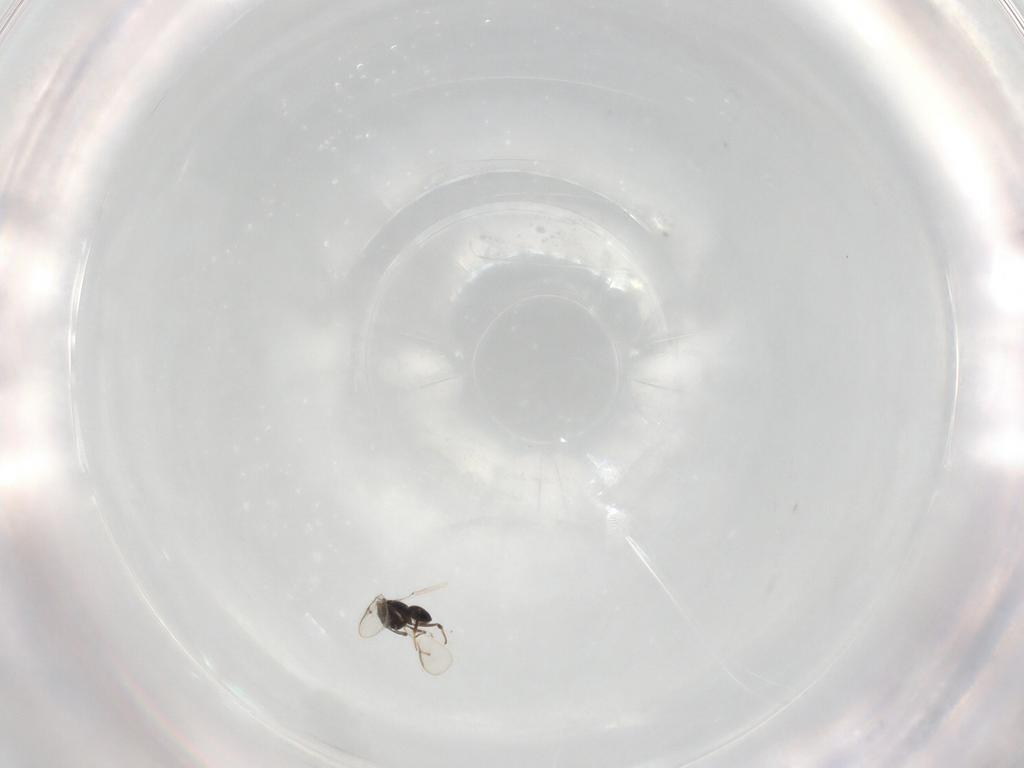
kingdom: Animalia
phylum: Arthropoda
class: Insecta
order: Hymenoptera
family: Scelionidae
